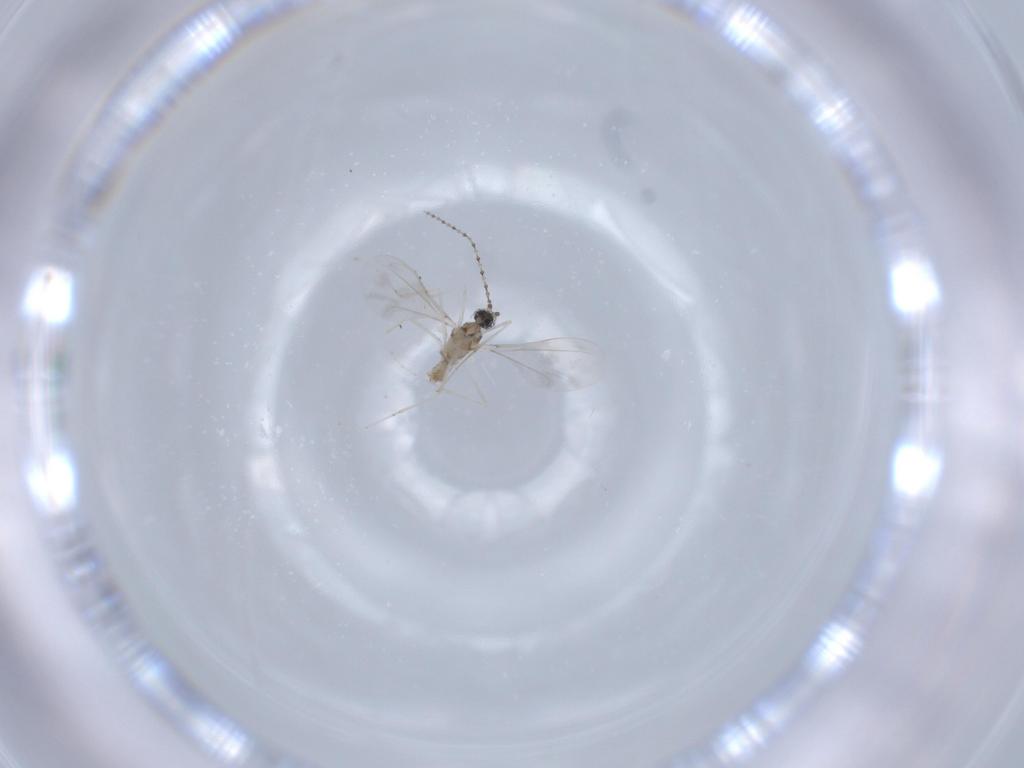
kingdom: Animalia
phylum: Arthropoda
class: Insecta
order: Diptera
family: Cecidomyiidae
